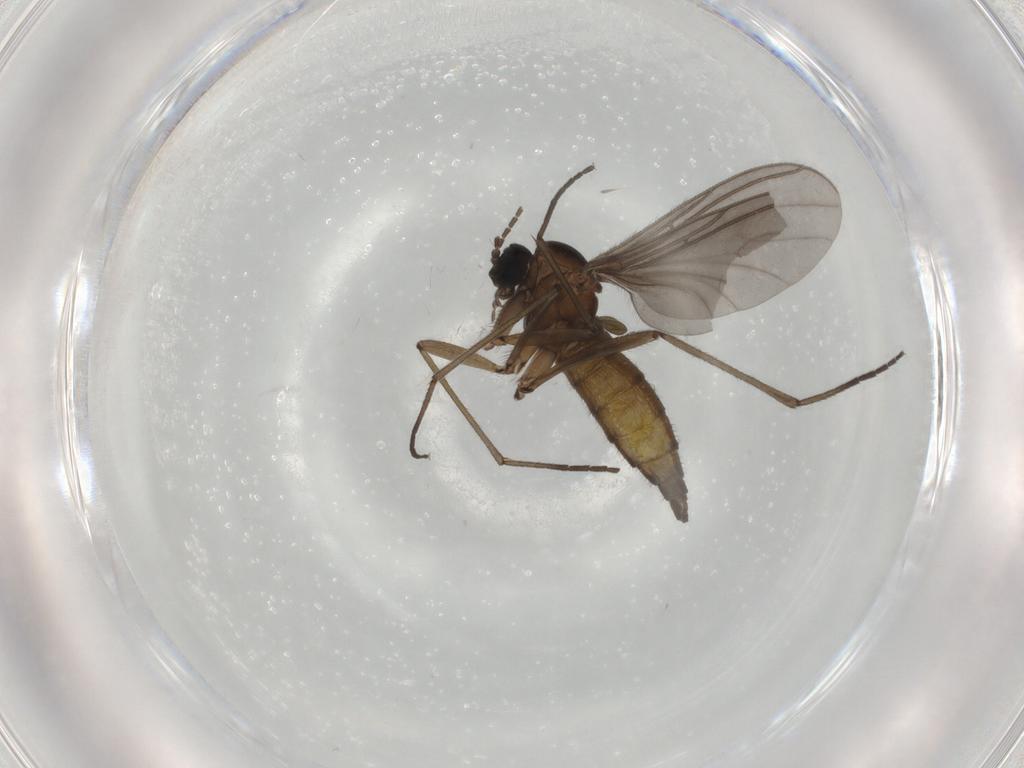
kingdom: Animalia
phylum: Arthropoda
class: Insecta
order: Diptera
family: Sciaridae
